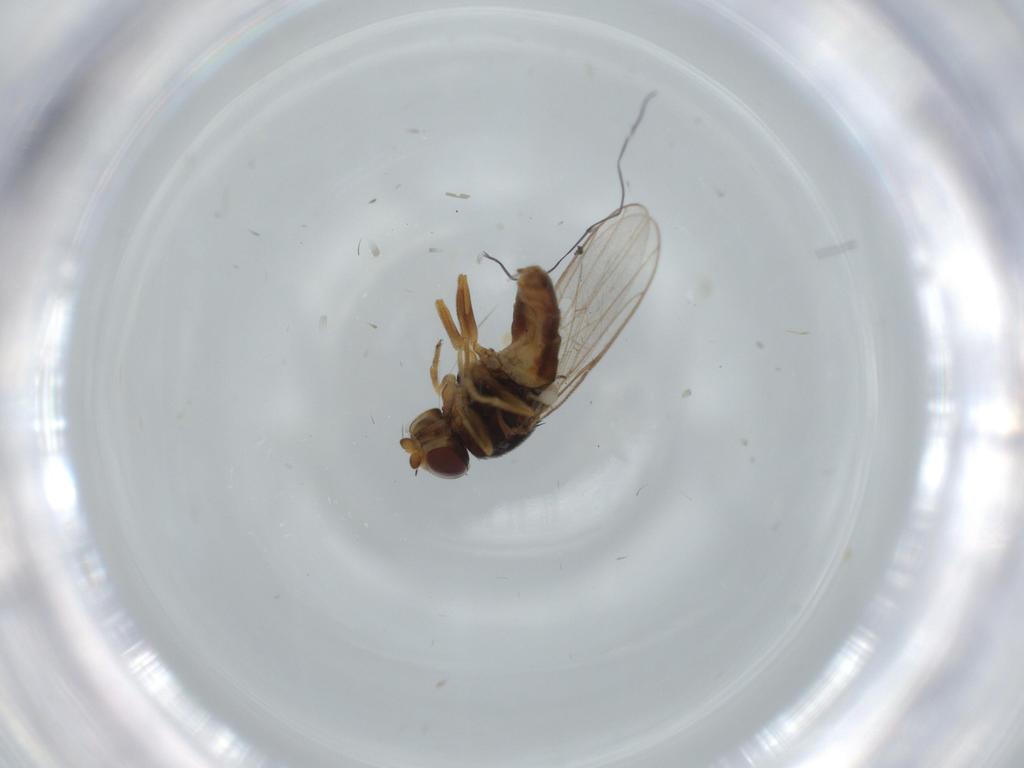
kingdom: Animalia
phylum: Arthropoda
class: Insecta
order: Diptera
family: Chloropidae
